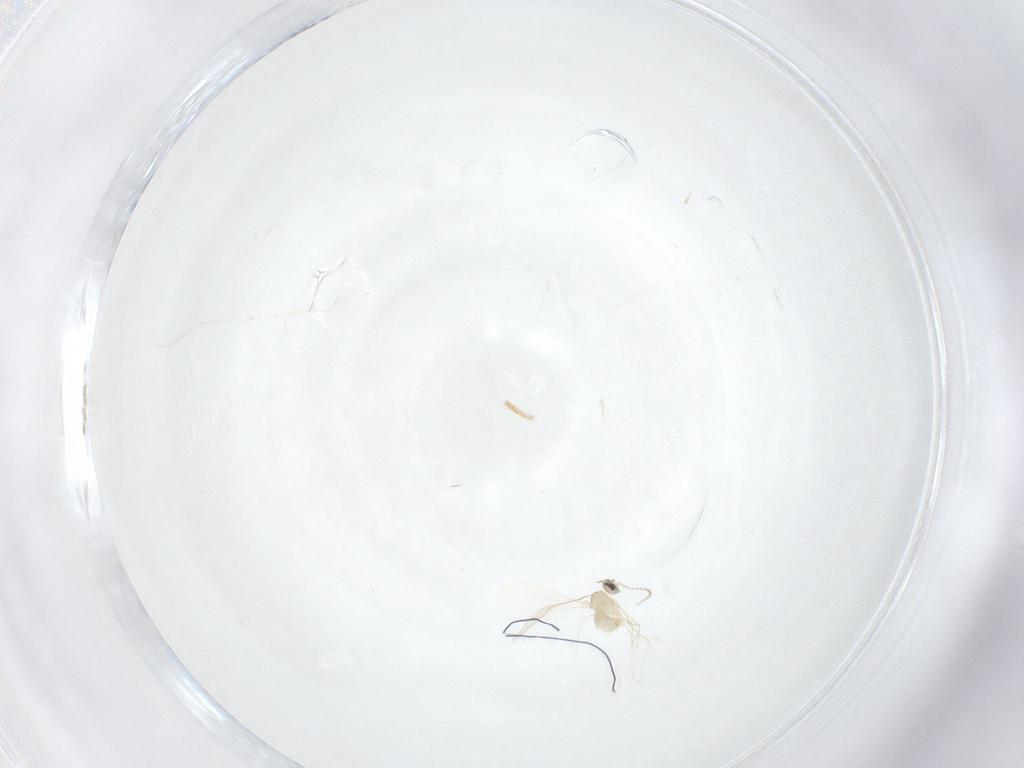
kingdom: Animalia
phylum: Arthropoda
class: Insecta
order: Diptera
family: Cecidomyiidae
